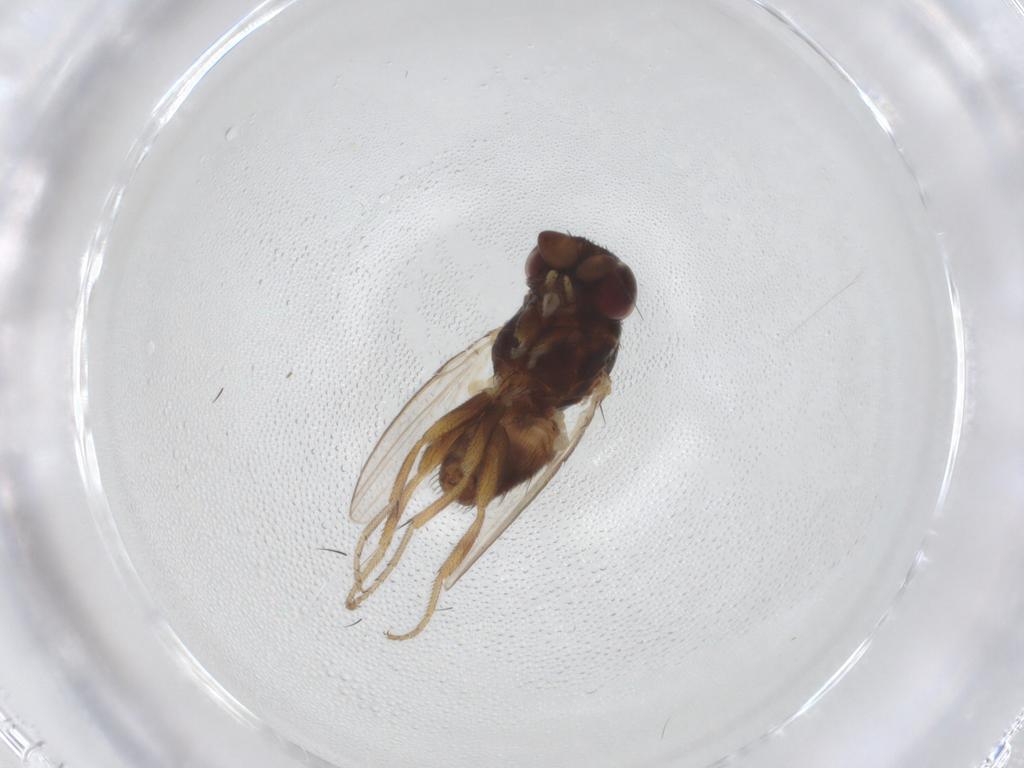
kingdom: Animalia
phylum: Arthropoda
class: Insecta
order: Diptera
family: Milichiidae
